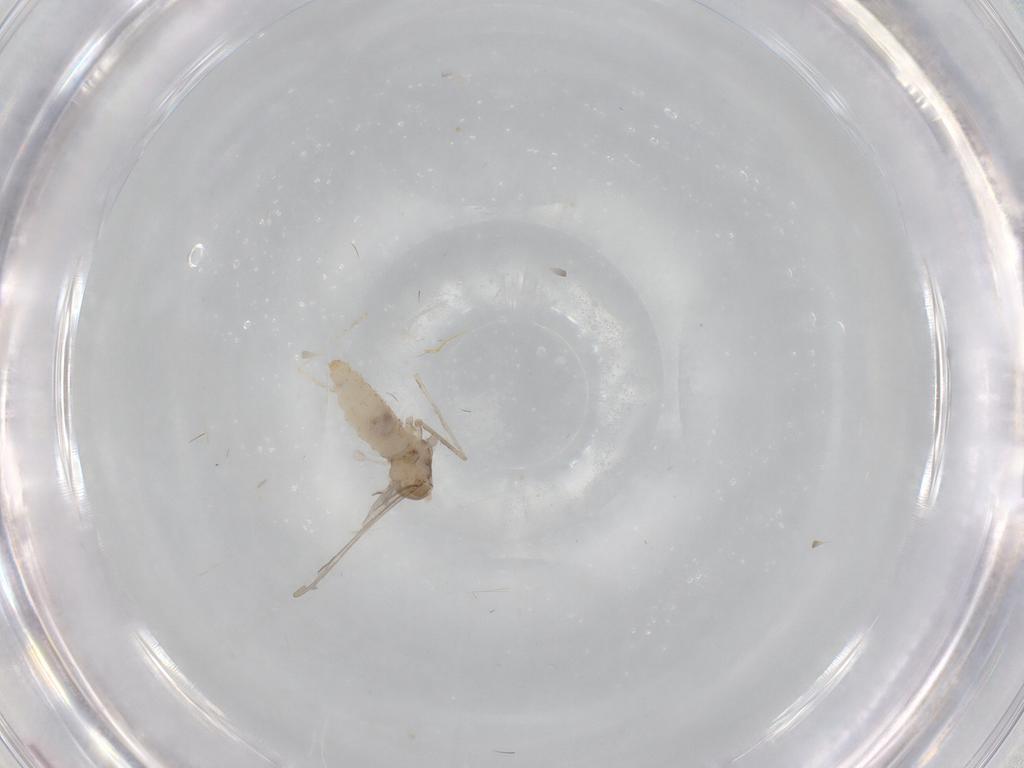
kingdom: Animalia
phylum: Arthropoda
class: Insecta
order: Diptera
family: Cecidomyiidae
